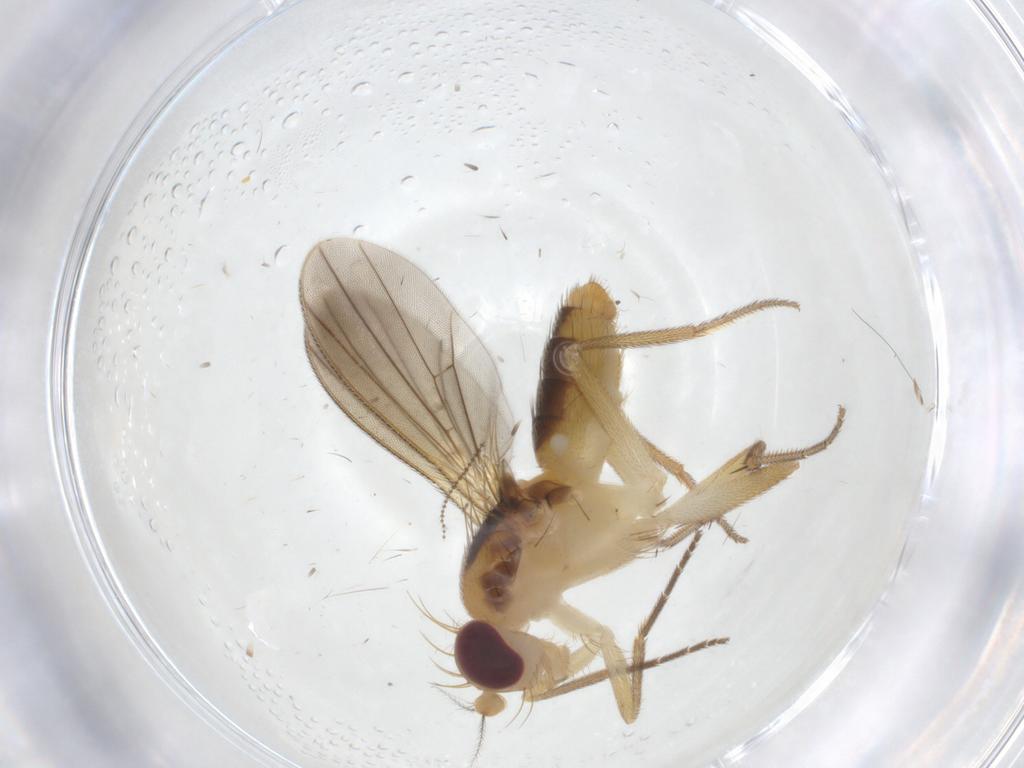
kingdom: Animalia
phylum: Arthropoda
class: Insecta
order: Diptera
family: Clusiidae
